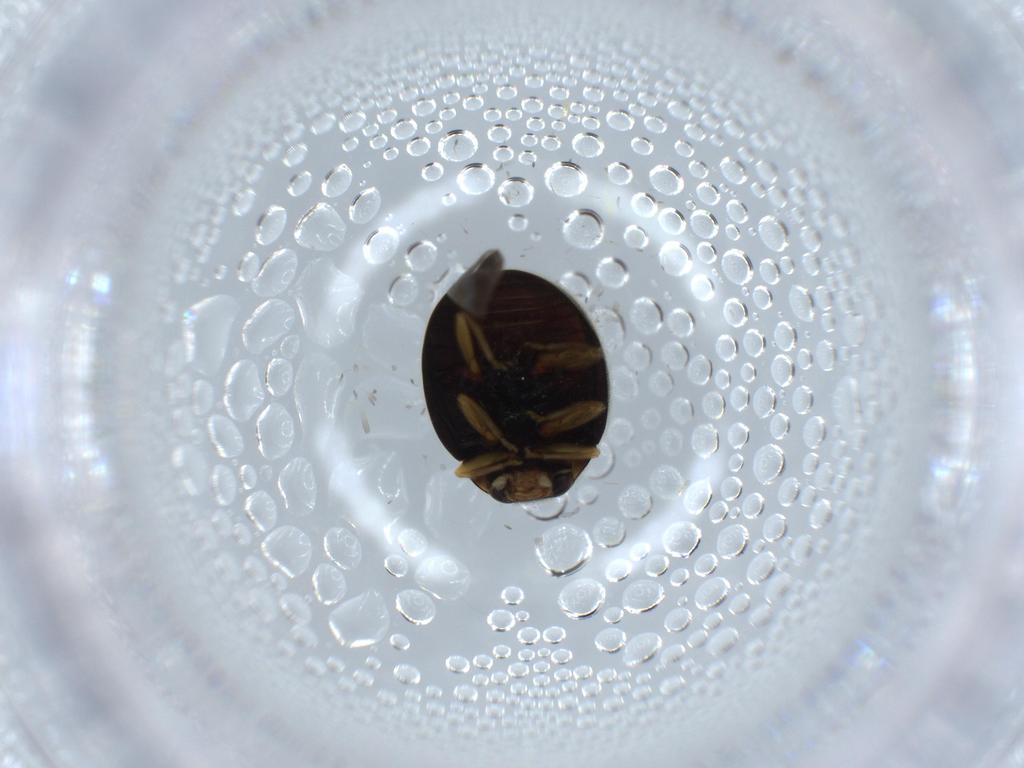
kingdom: Animalia
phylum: Arthropoda
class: Insecta
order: Coleoptera
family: Coccinellidae
